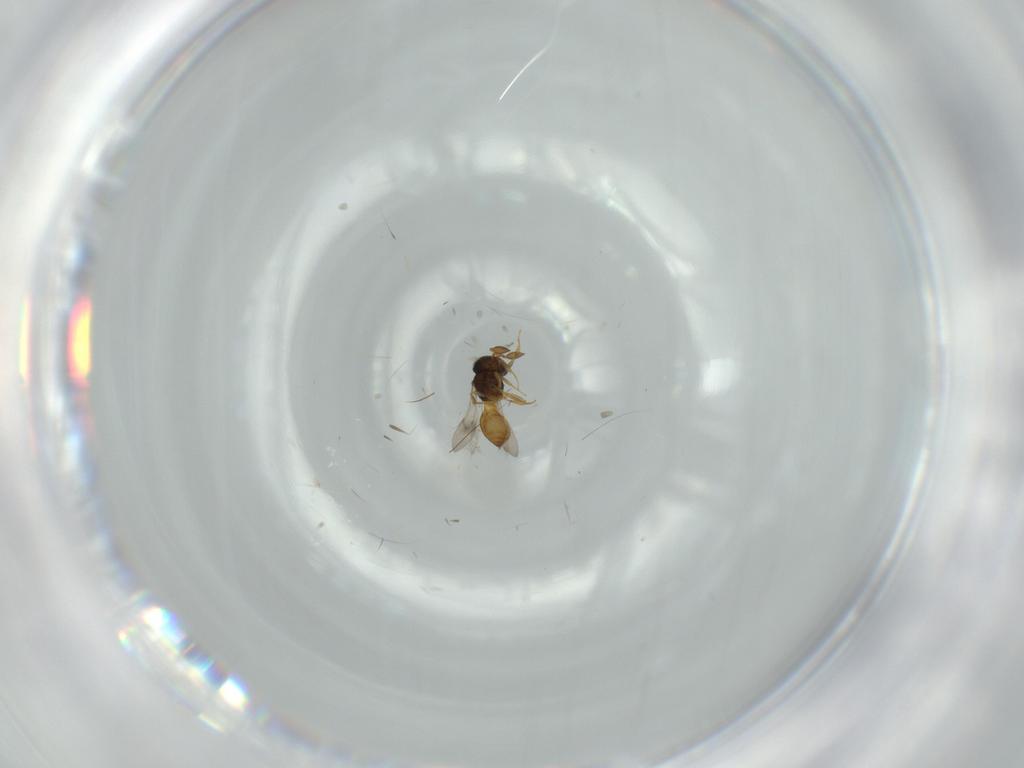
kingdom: Animalia
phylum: Arthropoda
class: Insecta
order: Hymenoptera
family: Scelionidae
